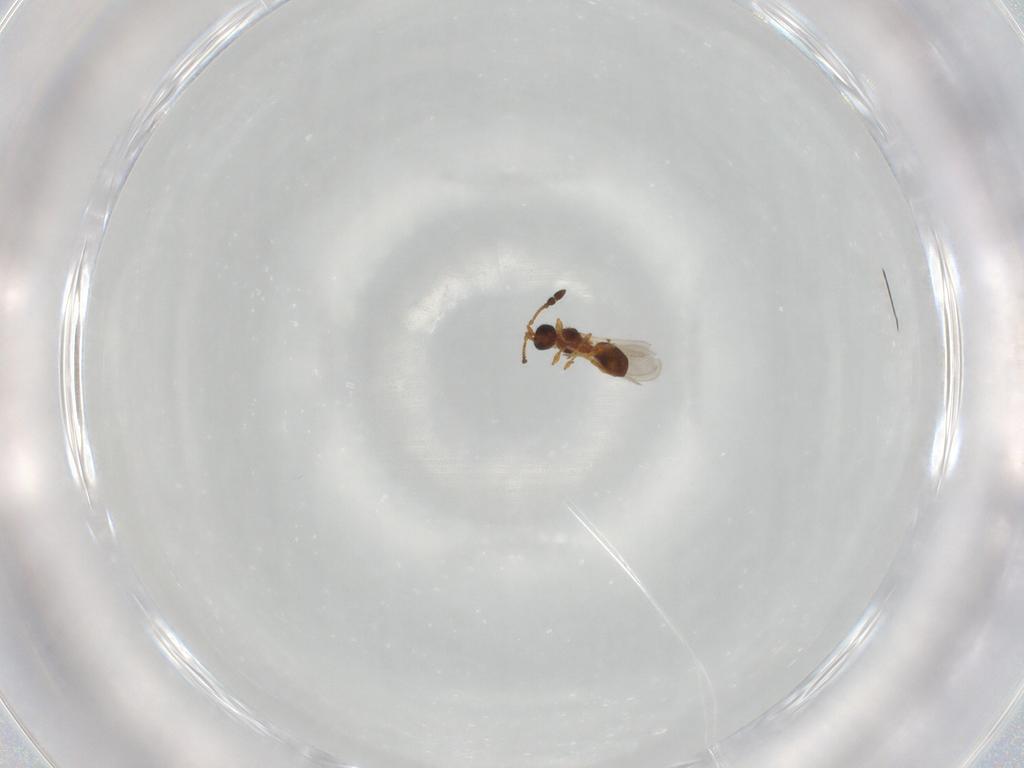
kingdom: Animalia
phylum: Arthropoda
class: Insecta
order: Hymenoptera
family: Diapriidae
